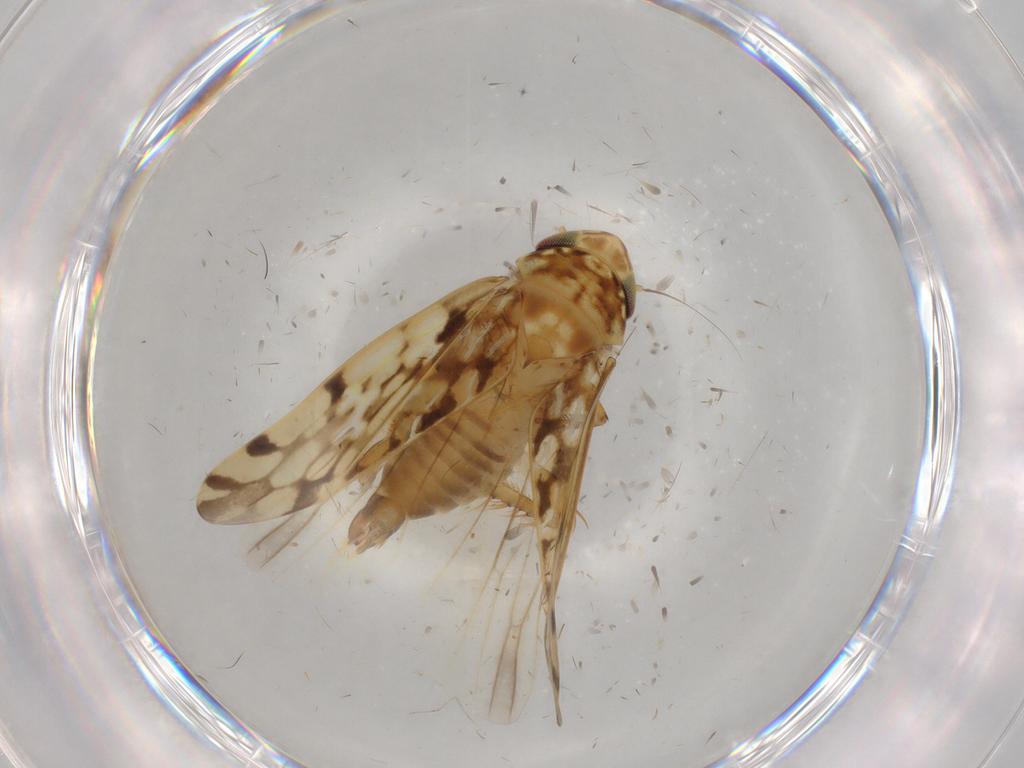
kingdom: Animalia
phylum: Arthropoda
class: Insecta
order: Hemiptera
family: Cicadellidae
